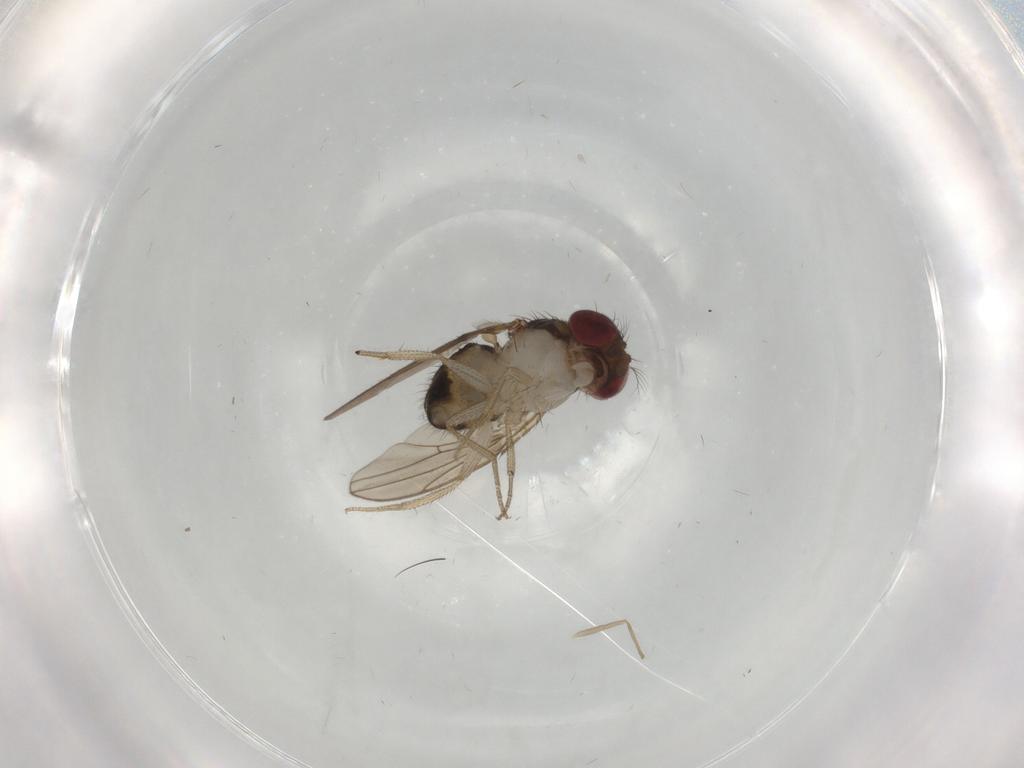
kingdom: Animalia
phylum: Arthropoda
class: Insecta
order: Diptera
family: Drosophilidae
